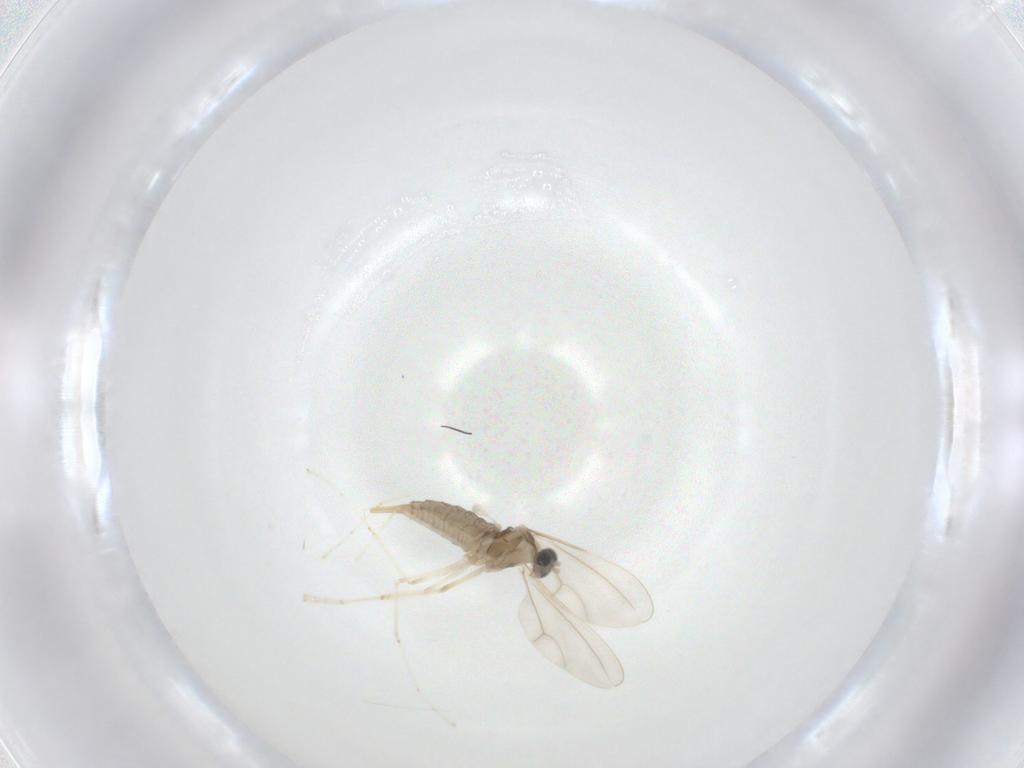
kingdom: Animalia
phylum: Arthropoda
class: Insecta
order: Diptera
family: Cecidomyiidae
